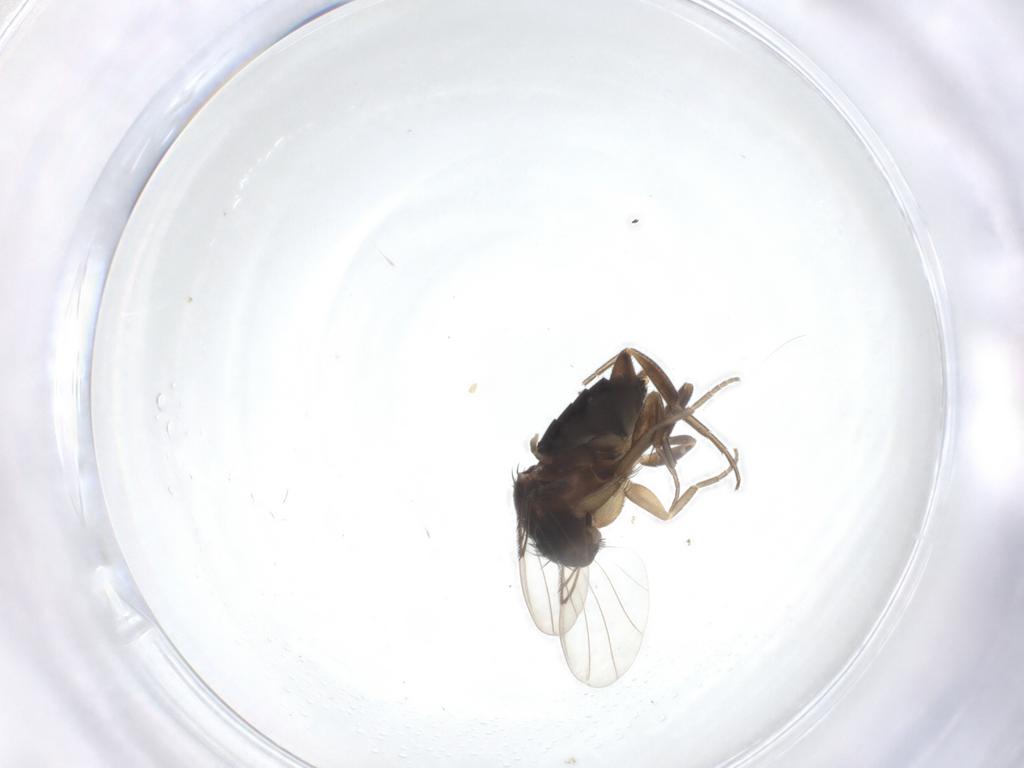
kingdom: Animalia
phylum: Arthropoda
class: Insecta
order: Diptera
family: Phoridae
